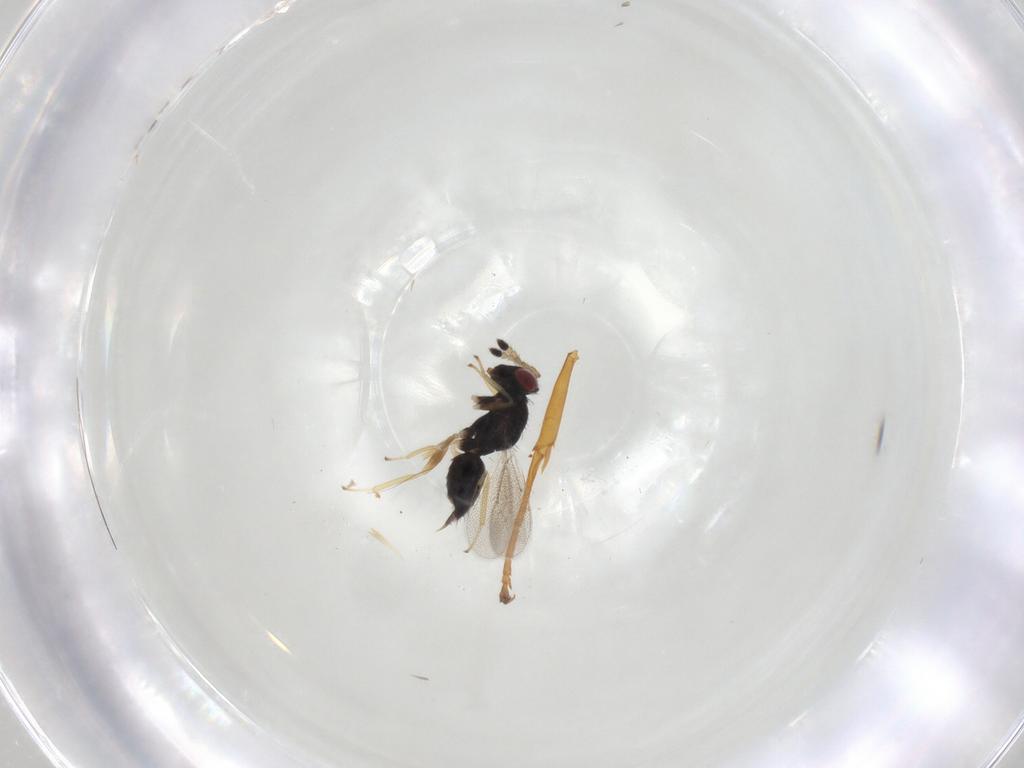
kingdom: Animalia
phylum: Arthropoda
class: Insecta
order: Hymenoptera
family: Eulophidae
